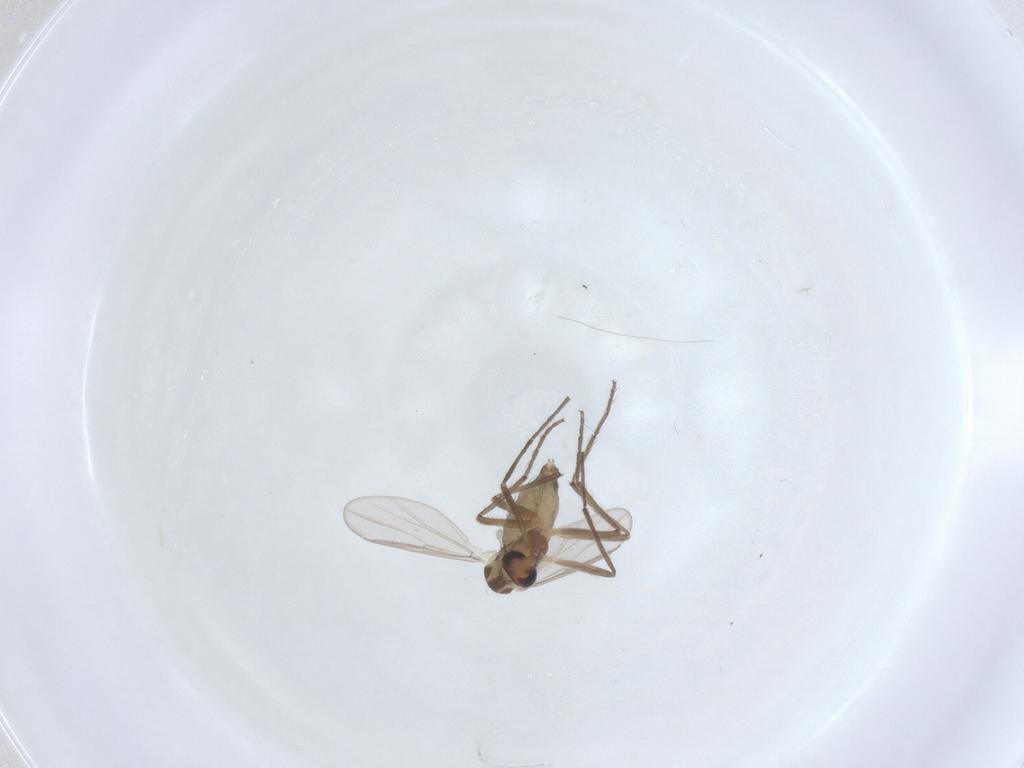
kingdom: Animalia
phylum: Arthropoda
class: Insecta
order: Diptera
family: Chironomidae
